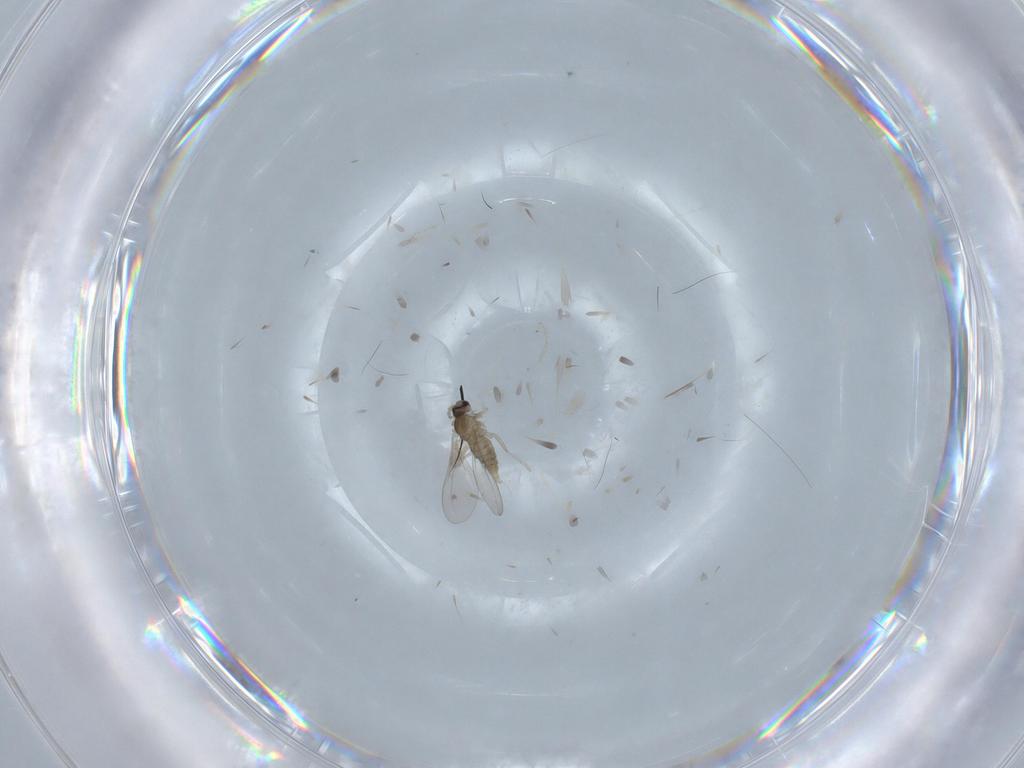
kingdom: Animalia
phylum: Arthropoda
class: Insecta
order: Diptera
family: Cecidomyiidae
